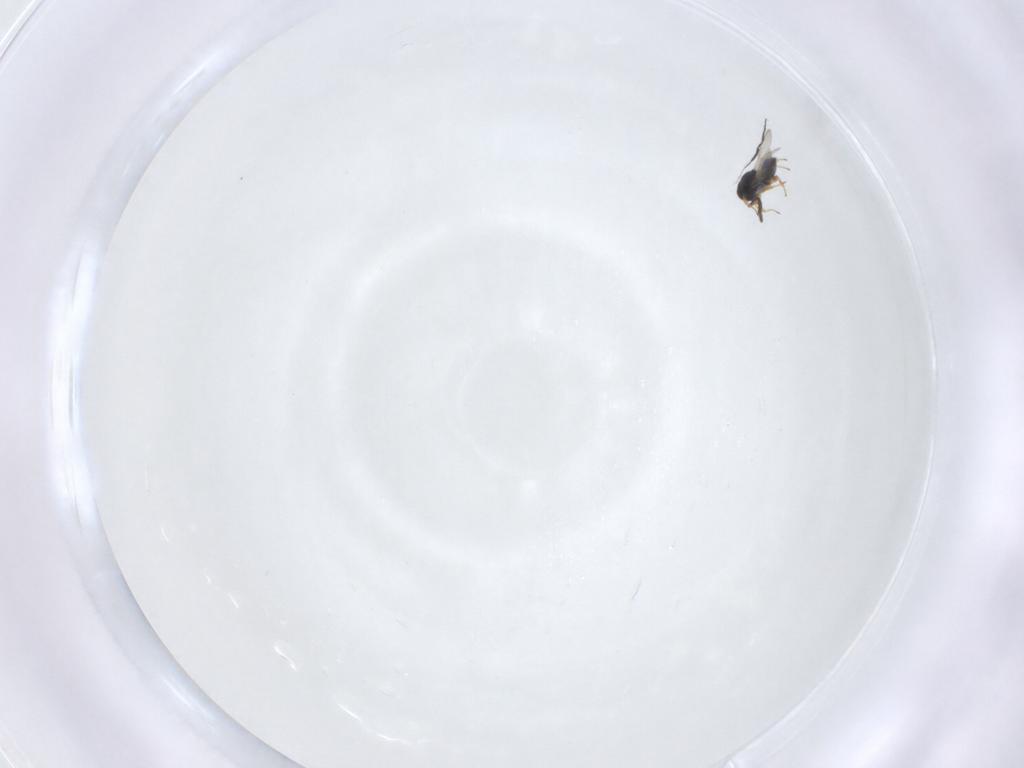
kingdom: Animalia
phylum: Arthropoda
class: Insecta
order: Hymenoptera
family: Scelionidae
